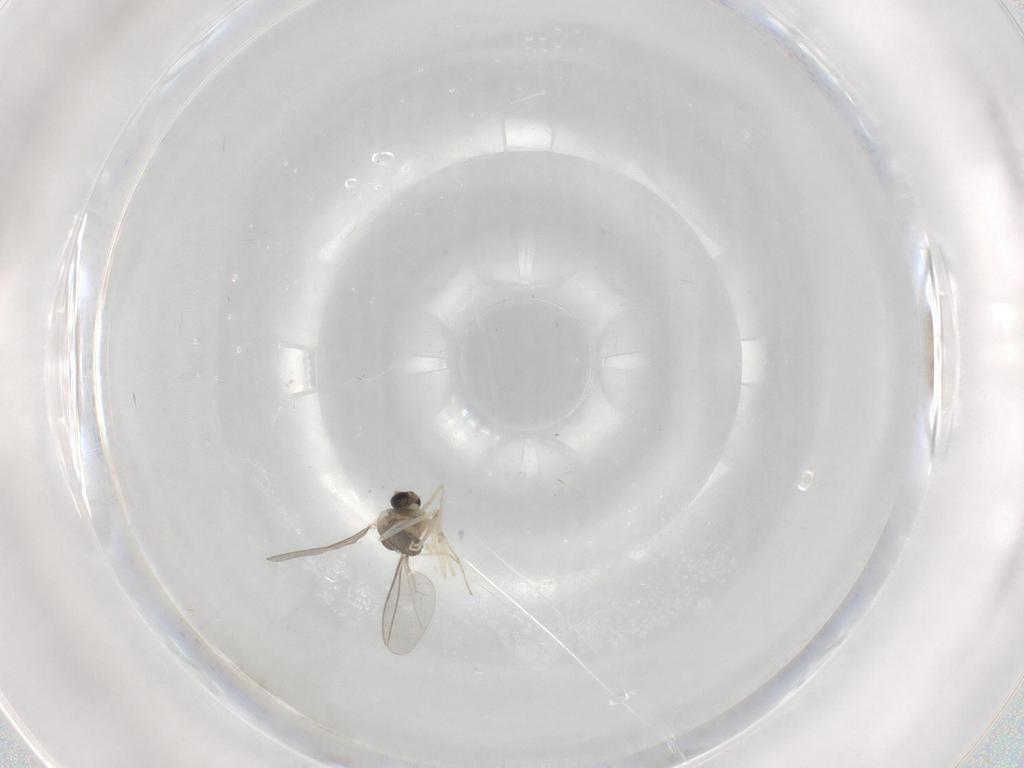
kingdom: Animalia
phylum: Arthropoda
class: Insecta
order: Diptera
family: Cecidomyiidae
